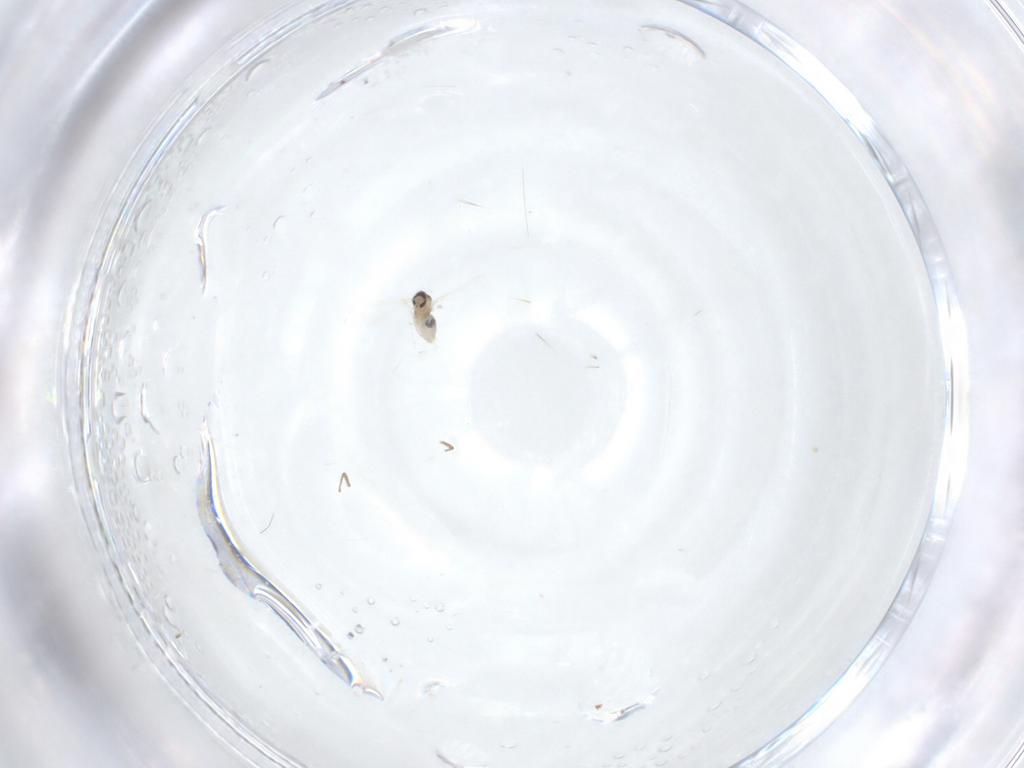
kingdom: Animalia
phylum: Arthropoda
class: Insecta
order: Diptera
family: Cecidomyiidae
